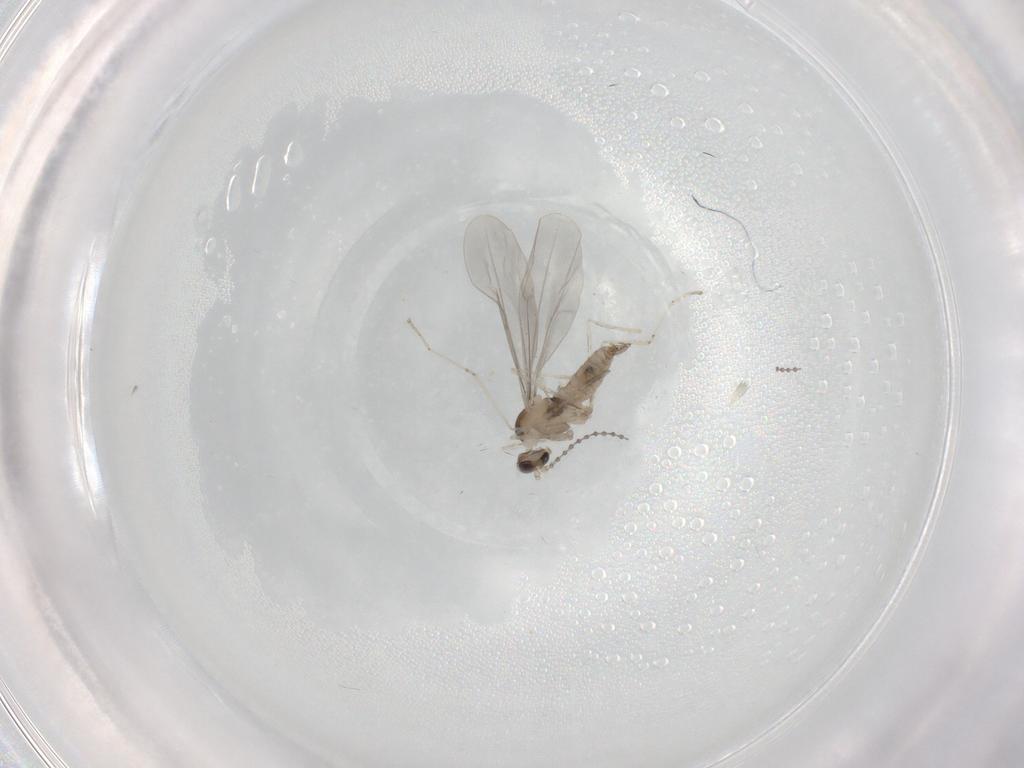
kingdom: Animalia
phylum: Arthropoda
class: Insecta
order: Diptera
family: Cecidomyiidae
